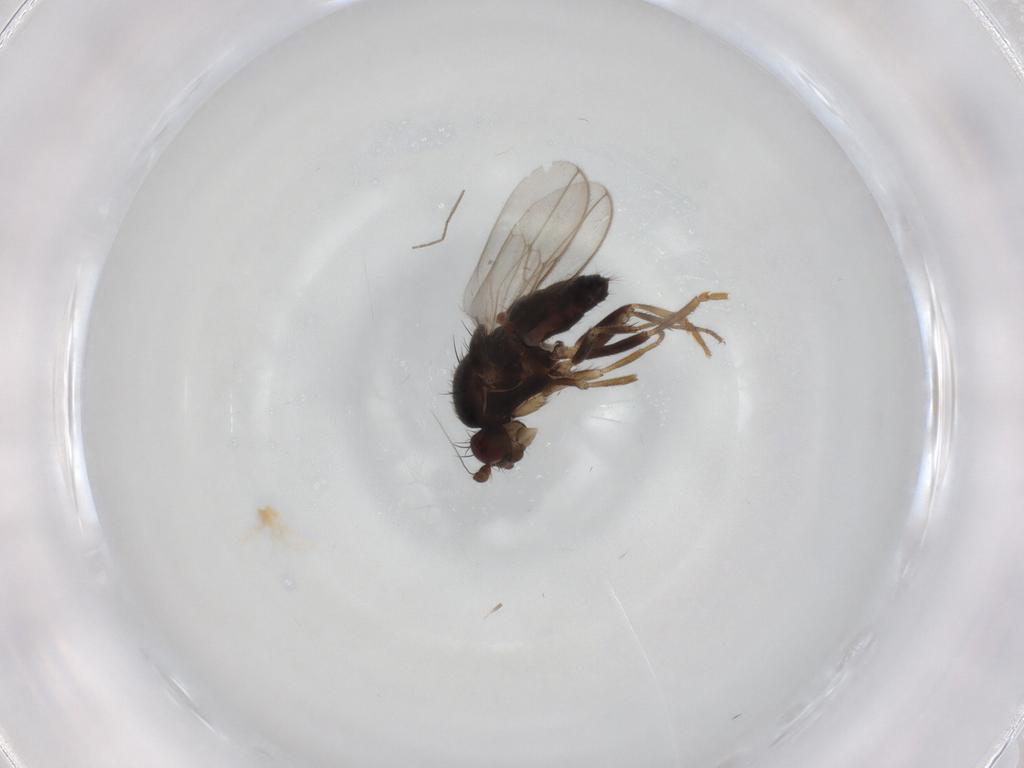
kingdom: Animalia
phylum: Arthropoda
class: Insecta
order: Diptera
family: Sphaeroceridae
